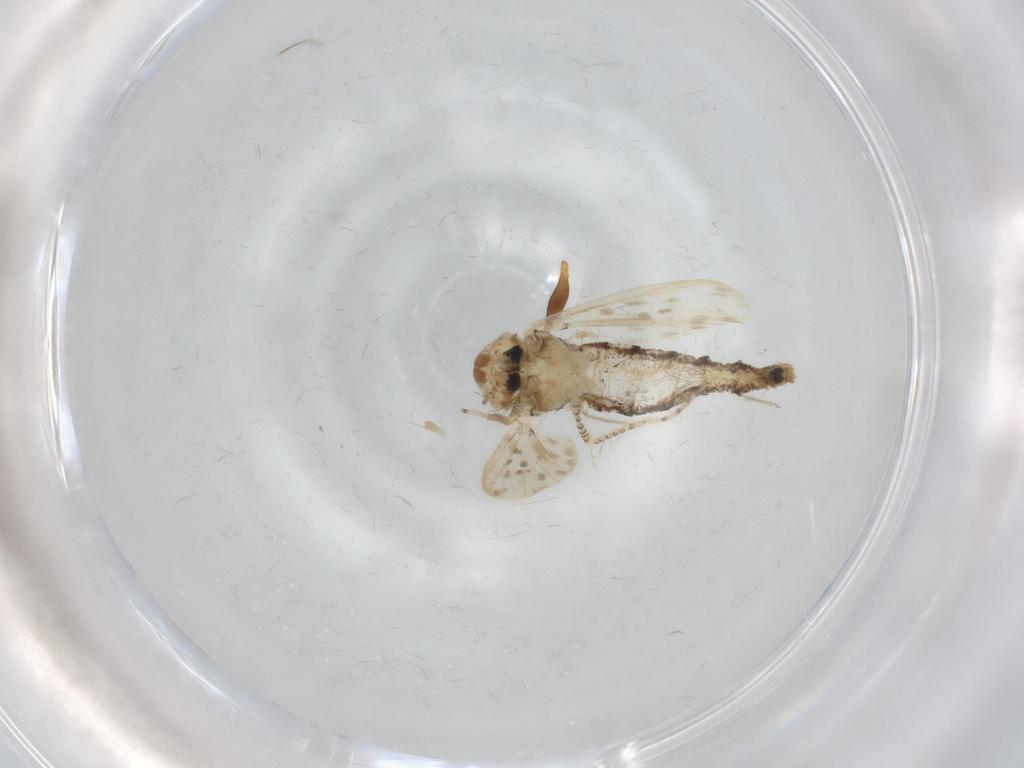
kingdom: Animalia
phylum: Arthropoda
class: Insecta
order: Diptera
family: Chaoboridae
